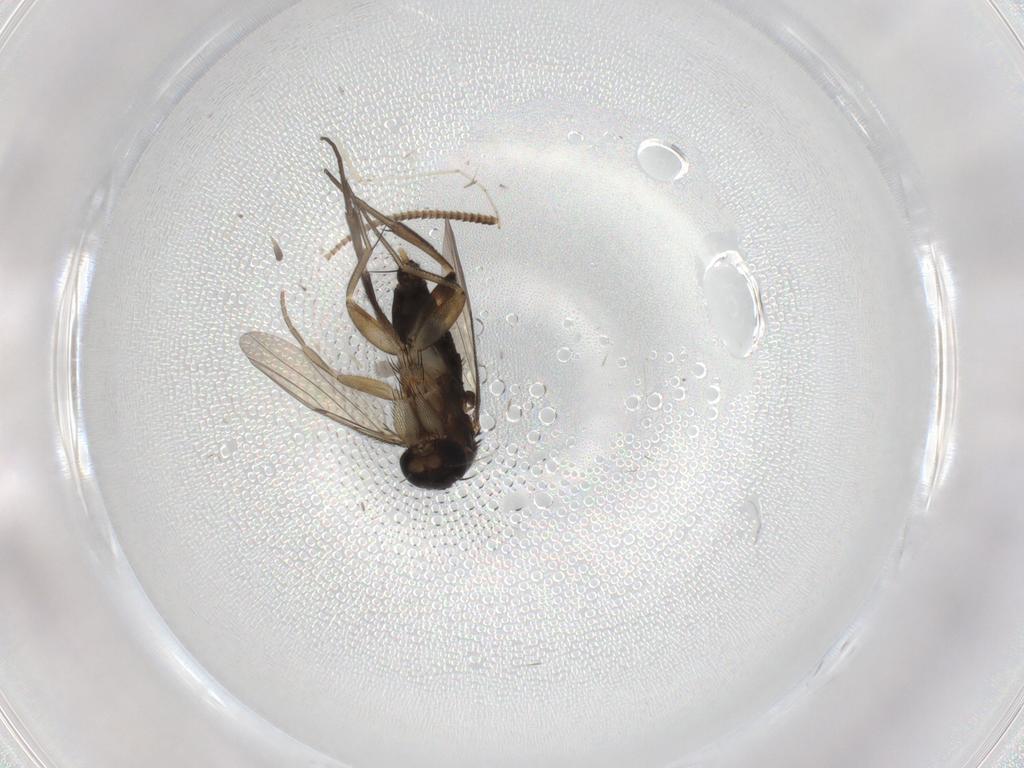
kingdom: Animalia
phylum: Arthropoda
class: Insecta
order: Diptera
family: Phoridae
